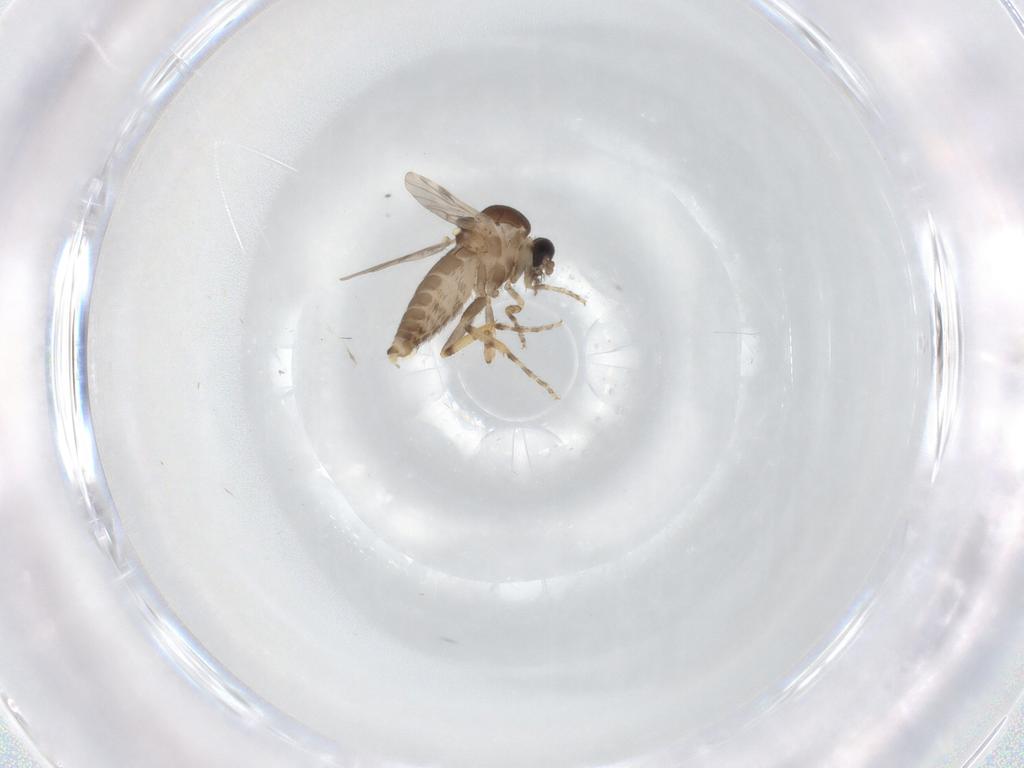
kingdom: Animalia
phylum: Arthropoda
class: Insecta
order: Diptera
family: Ceratopogonidae
